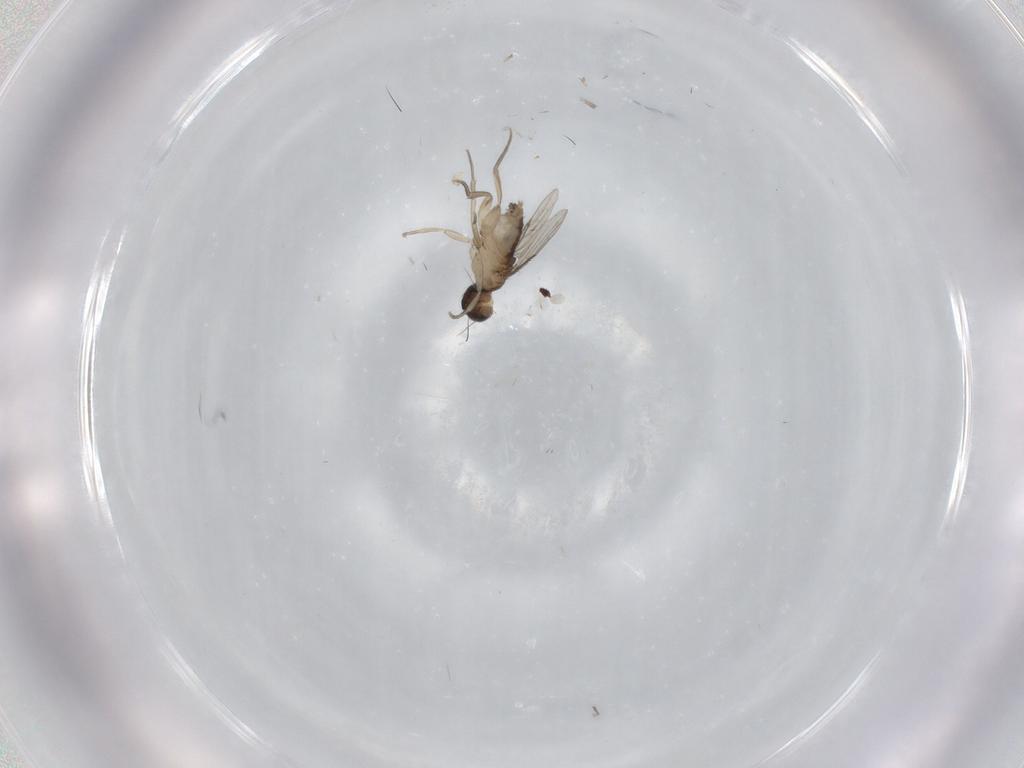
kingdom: Animalia
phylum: Arthropoda
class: Insecta
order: Diptera
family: Phoridae
